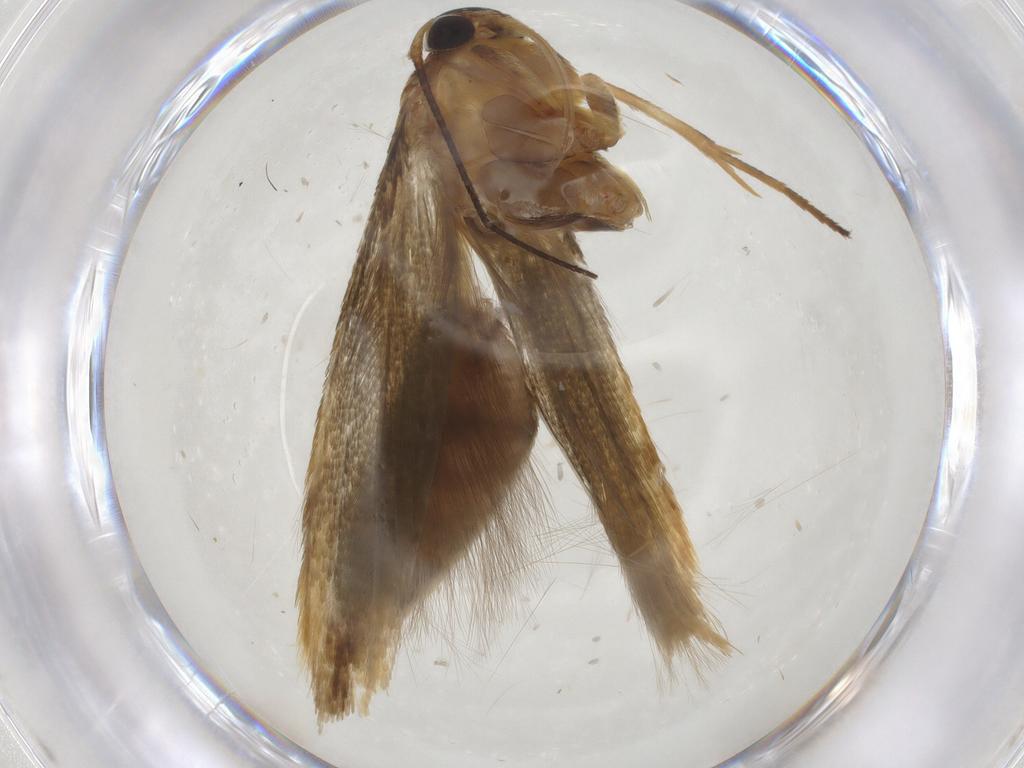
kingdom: Animalia
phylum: Arthropoda
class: Insecta
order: Lepidoptera
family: Stathmopodidae
